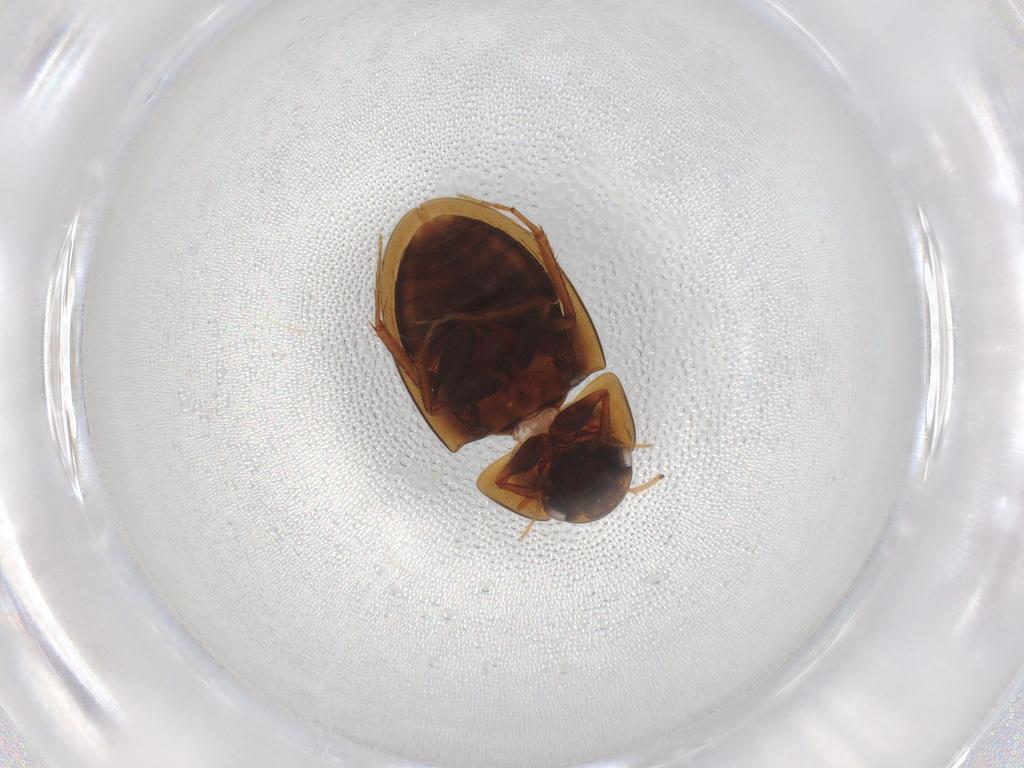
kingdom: Animalia
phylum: Arthropoda
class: Insecta
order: Coleoptera
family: Hydrophilidae
